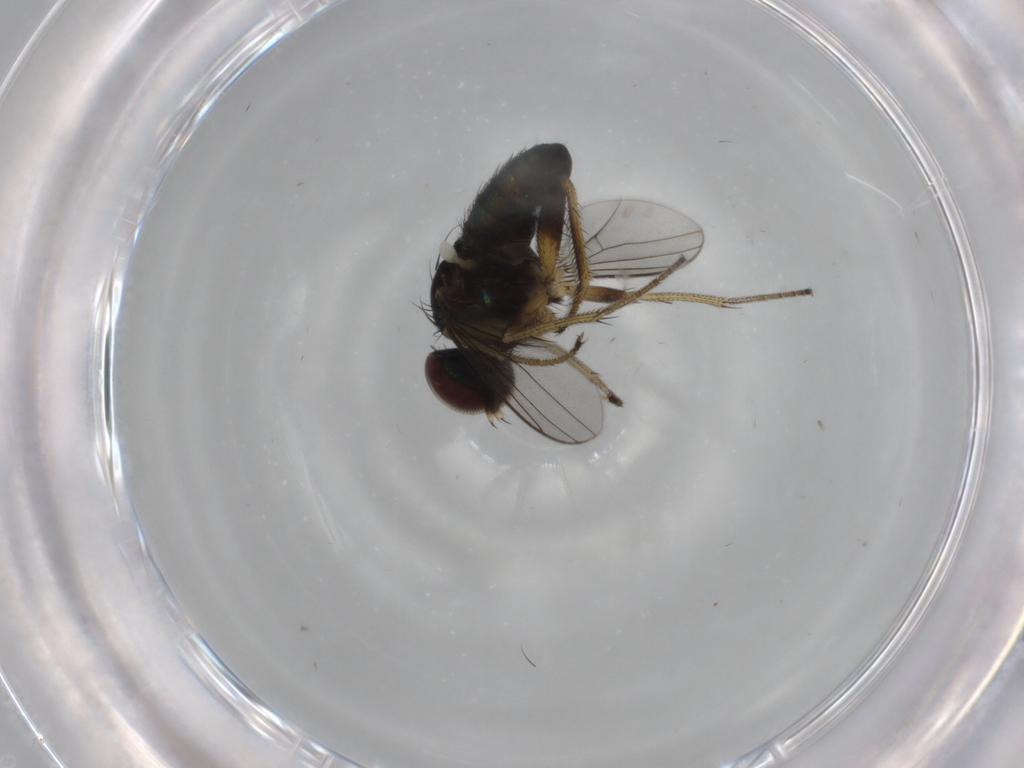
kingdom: Animalia
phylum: Arthropoda
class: Insecta
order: Diptera
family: Dolichopodidae
